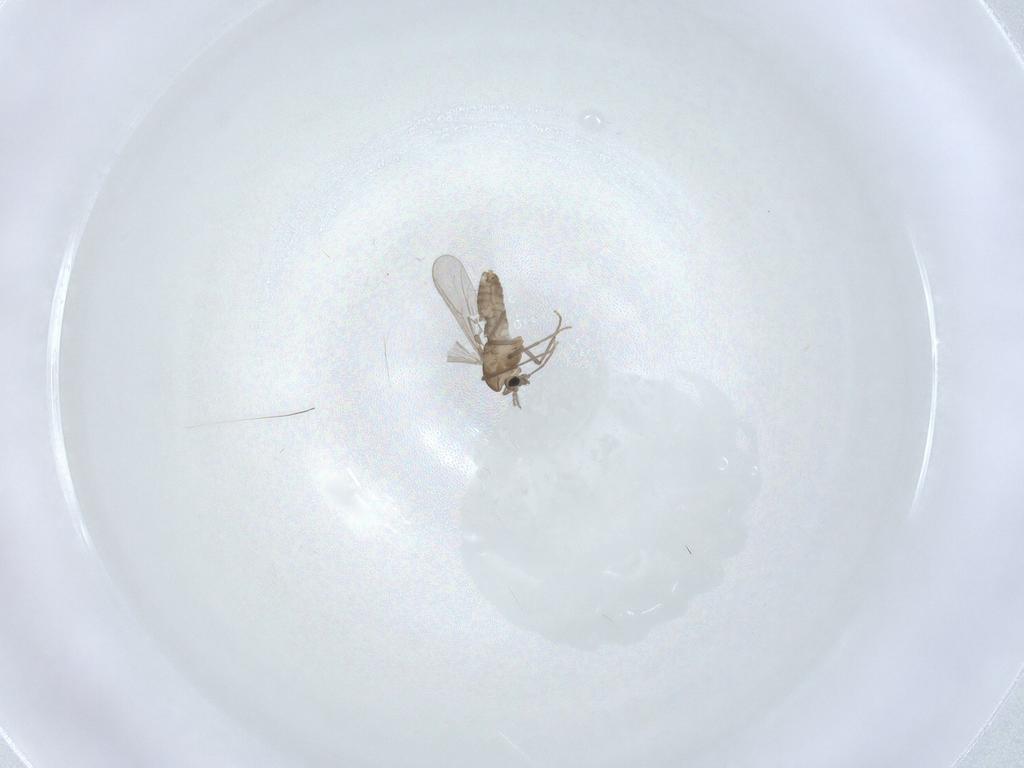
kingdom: Animalia
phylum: Arthropoda
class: Insecta
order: Diptera
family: Chironomidae
